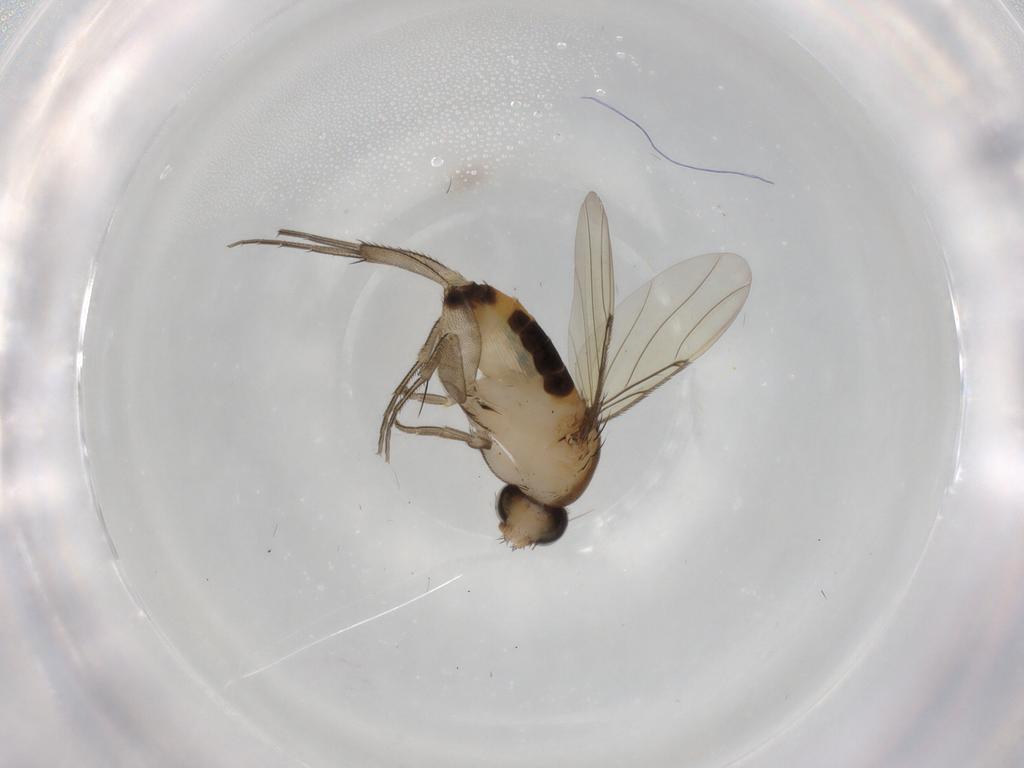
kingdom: Animalia
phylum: Arthropoda
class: Insecta
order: Diptera
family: Phoridae
